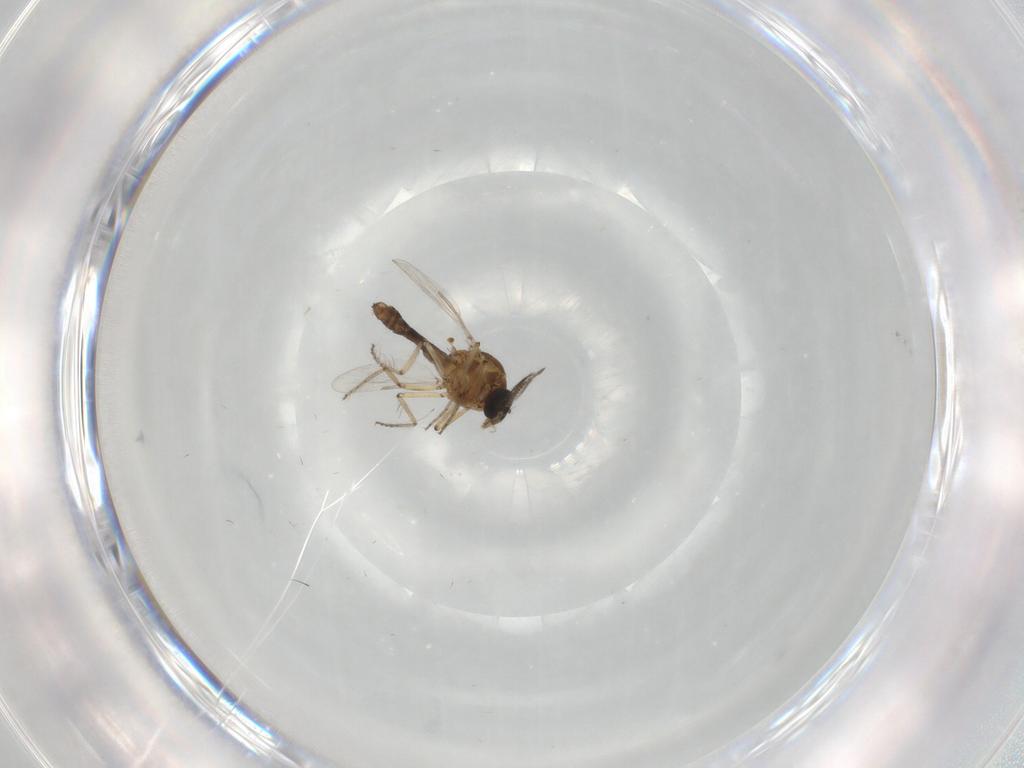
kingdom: Animalia
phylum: Arthropoda
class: Insecta
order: Diptera
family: Ceratopogonidae
